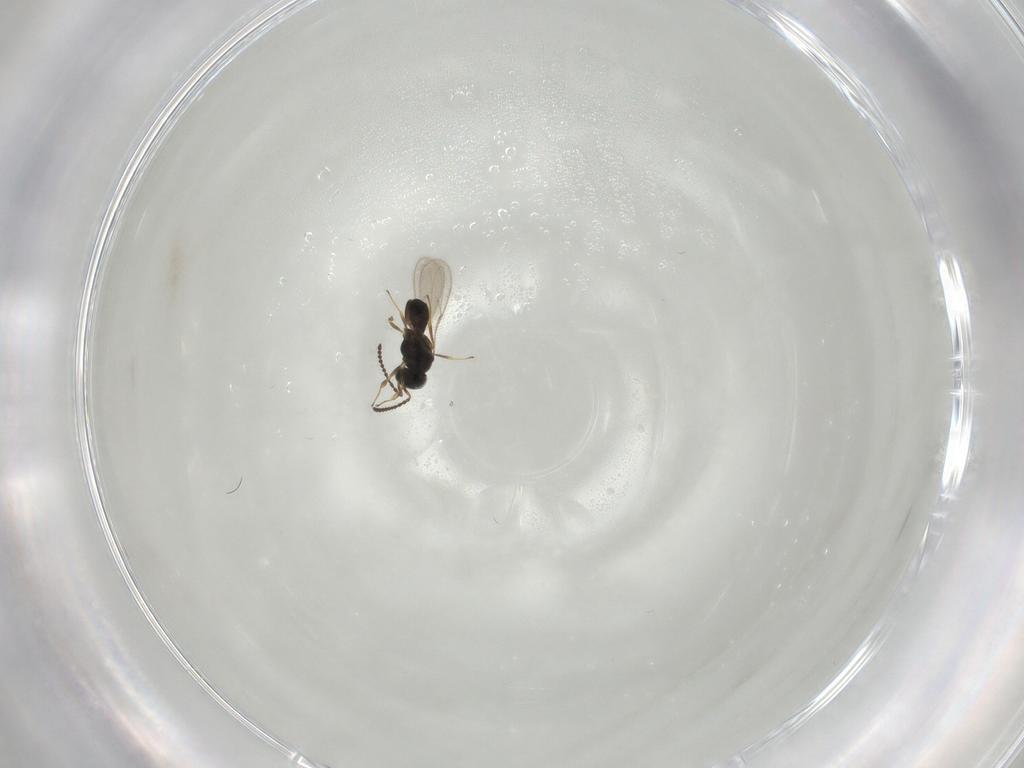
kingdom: Animalia
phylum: Arthropoda
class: Insecta
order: Hymenoptera
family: Scelionidae
